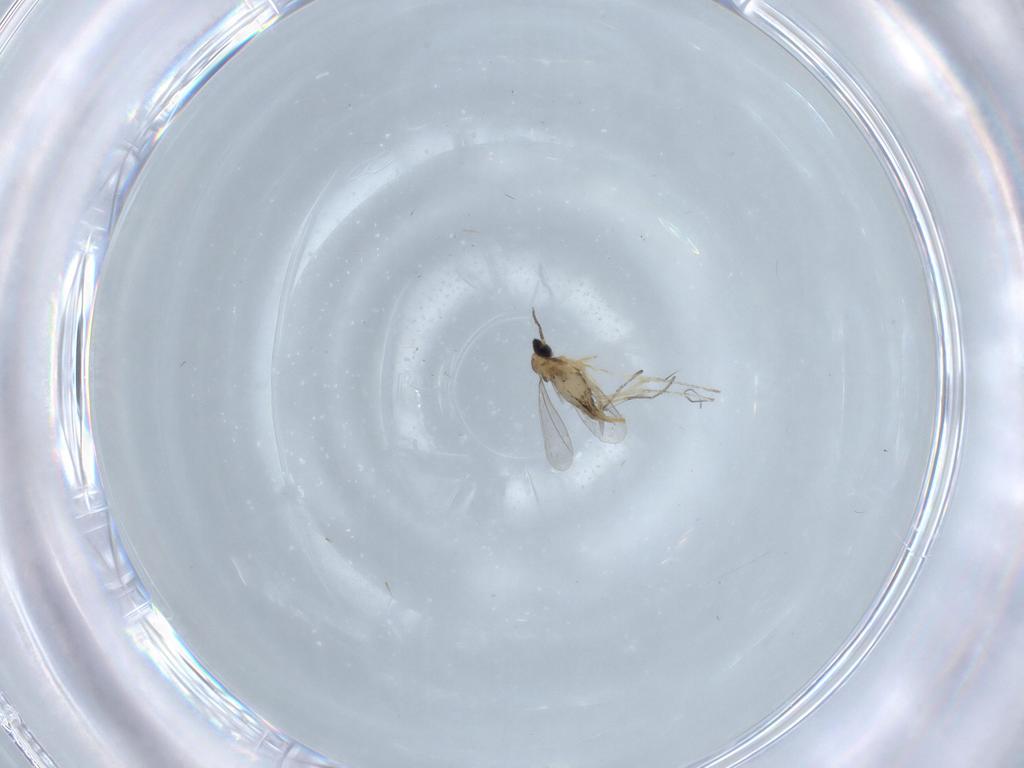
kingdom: Animalia
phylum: Arthropoda
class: Insecta
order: Diptera
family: Cecidomyiidae
